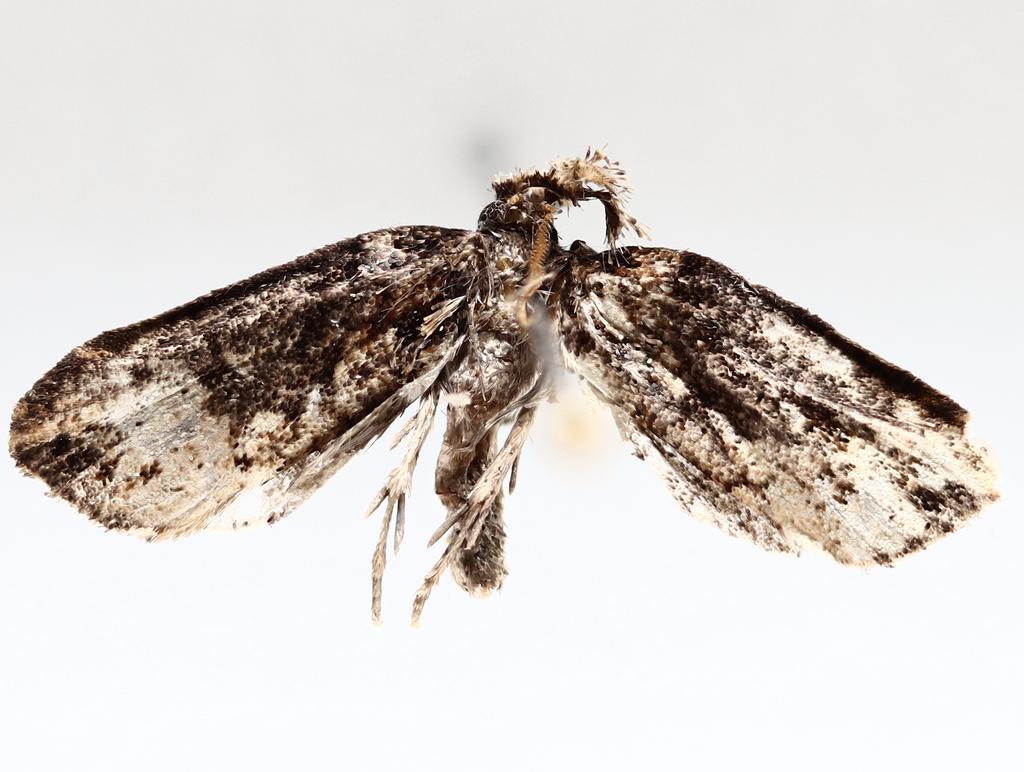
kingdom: Animalia
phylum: Arthropoda
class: Insecta
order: Diptera
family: Chironomidae
